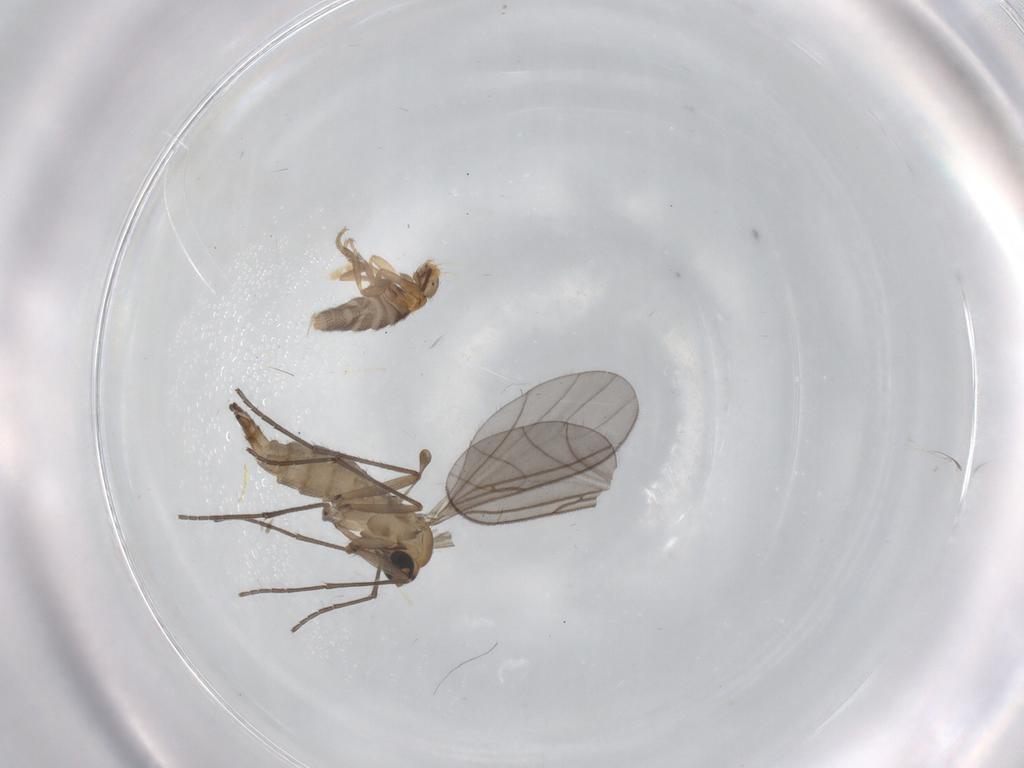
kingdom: Animalia
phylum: Arthropoda
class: Insecta
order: Diptera
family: Sciaridae
